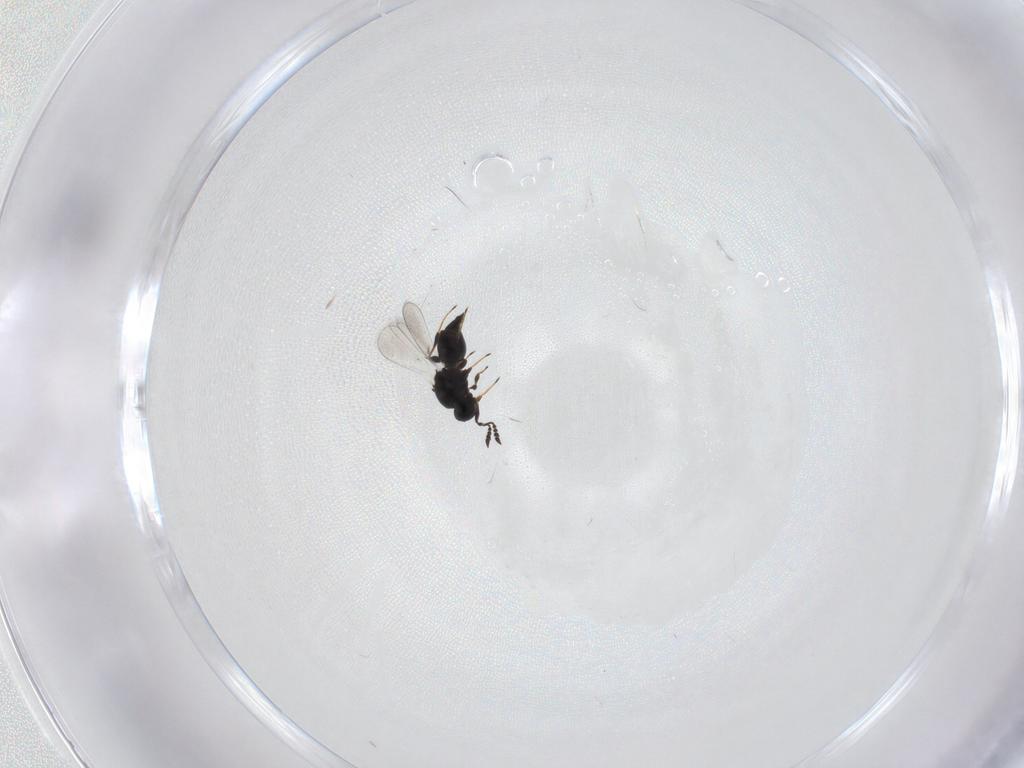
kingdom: Animalia
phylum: Arthropoda
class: Insecta
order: Hymenoptera
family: Platygastridae
